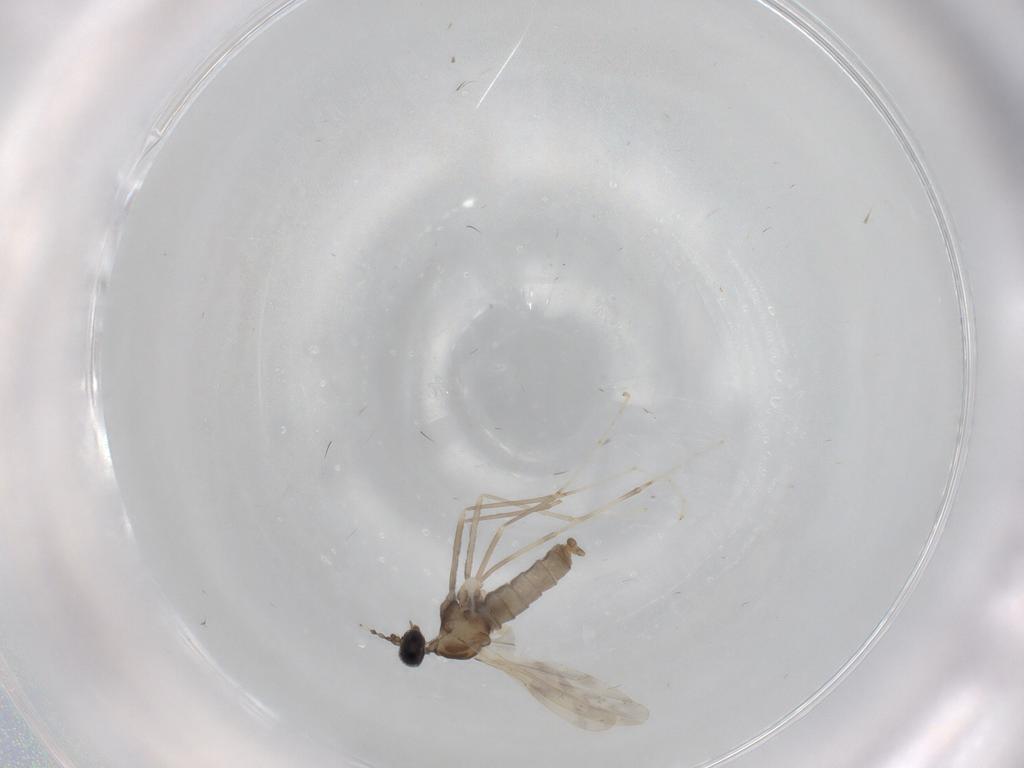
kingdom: Animalia
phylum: Arthropoda
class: Insecta
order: Diptera
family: Cecidomyiidae
